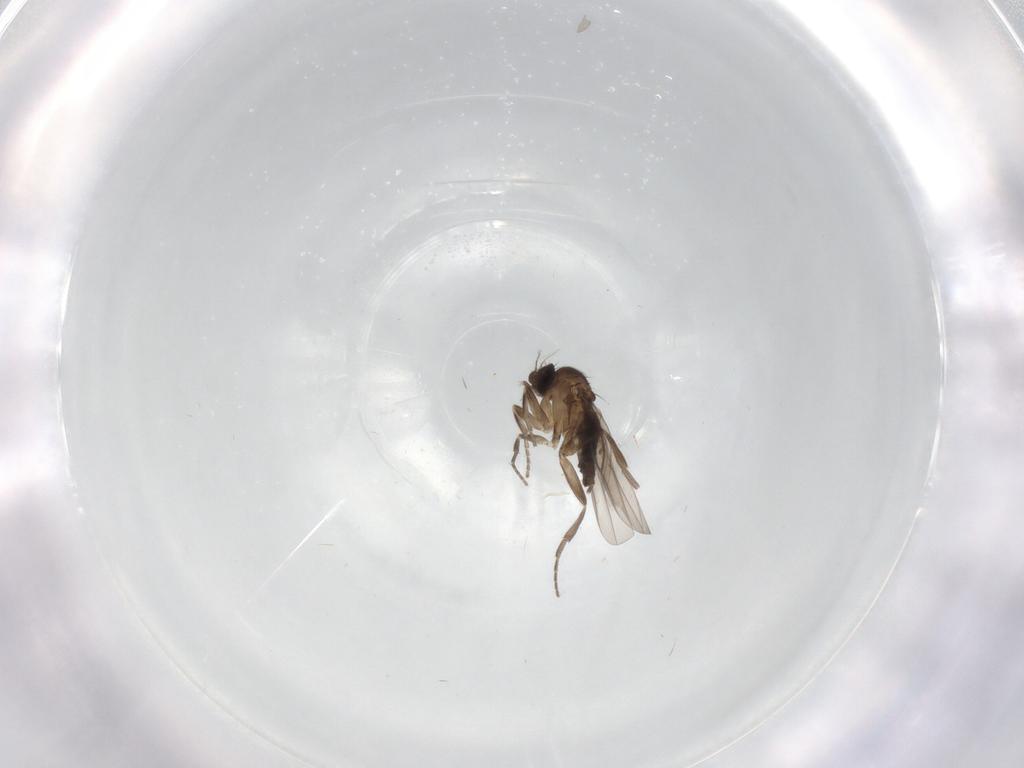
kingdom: Animalia
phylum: Arthropoda
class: Insecta
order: Diptera
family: Phoridae
